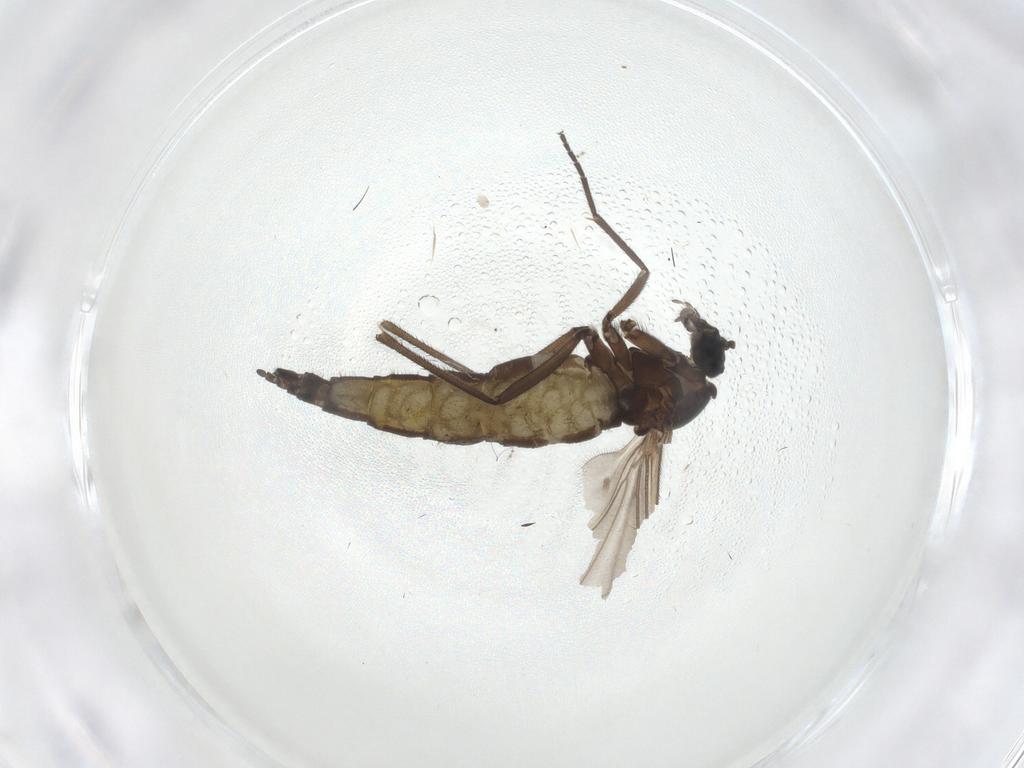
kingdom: Animalia
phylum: Arthropoda
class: Insecta
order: Diptera
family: Sciaridae
